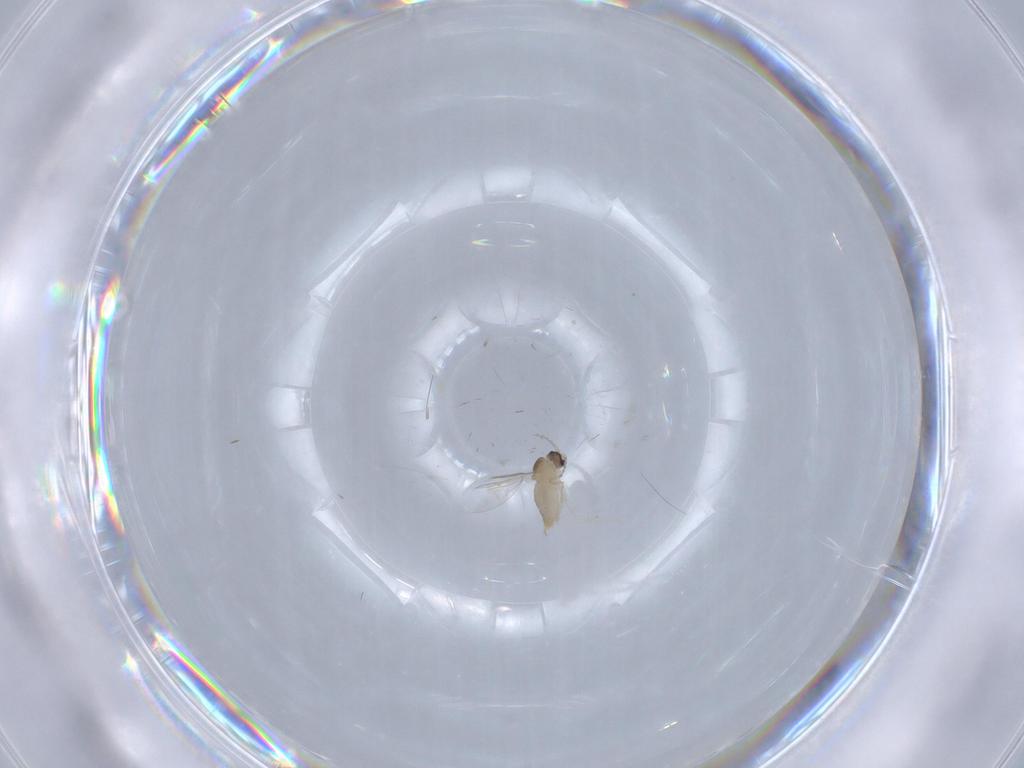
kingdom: Animalia
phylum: Arthropoda
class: Insecta
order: Diptera
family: Cecidomyiidae
